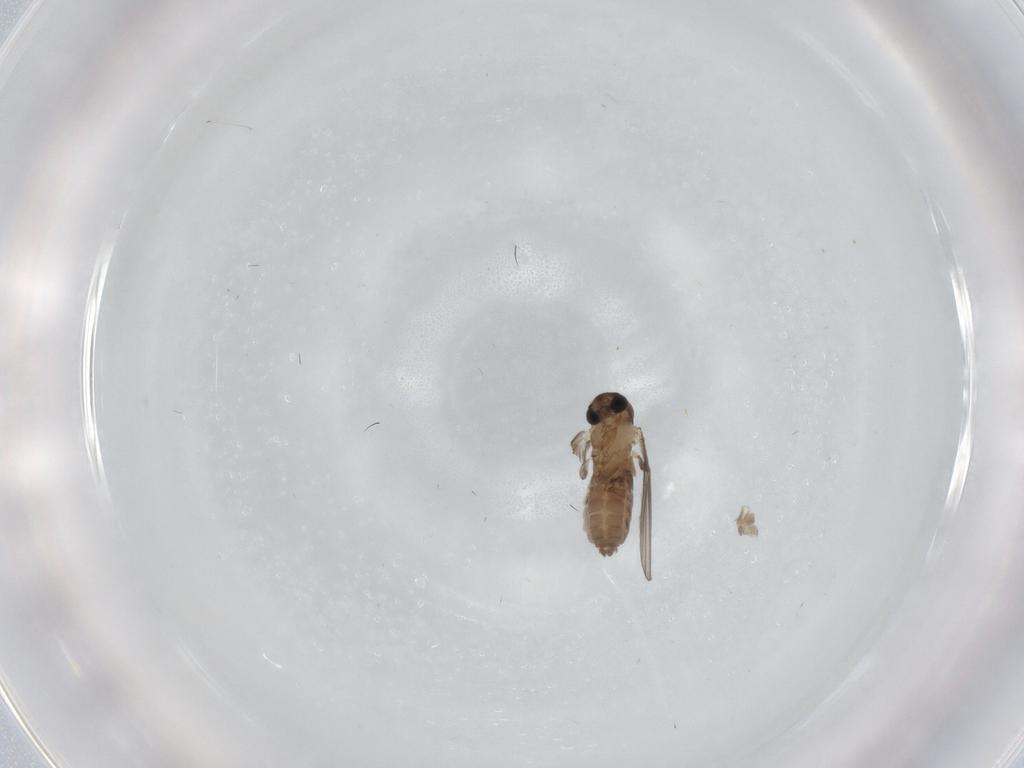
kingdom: Animalia
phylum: Arthropoda
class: Insecta
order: Diptera
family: Chironomidae
